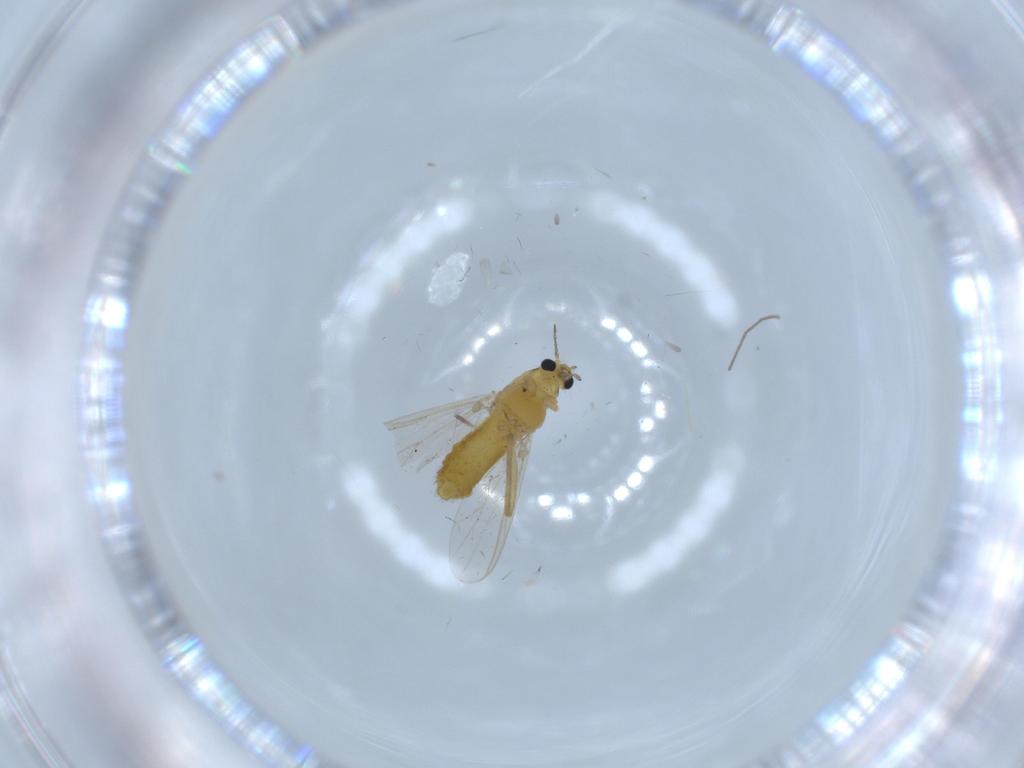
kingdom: Animalia
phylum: Arthropoda
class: Insecta
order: Diptera
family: Chironomidae
